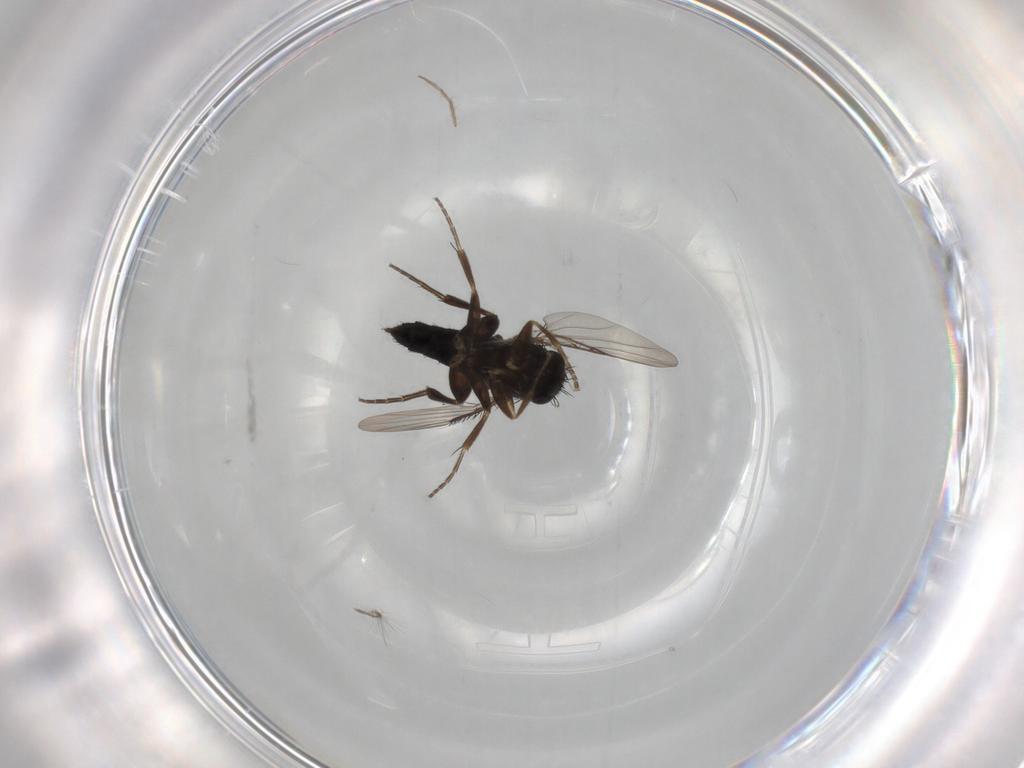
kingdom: Animalia
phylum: Arthropoda
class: Insecta
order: Diptera
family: Phoridae
